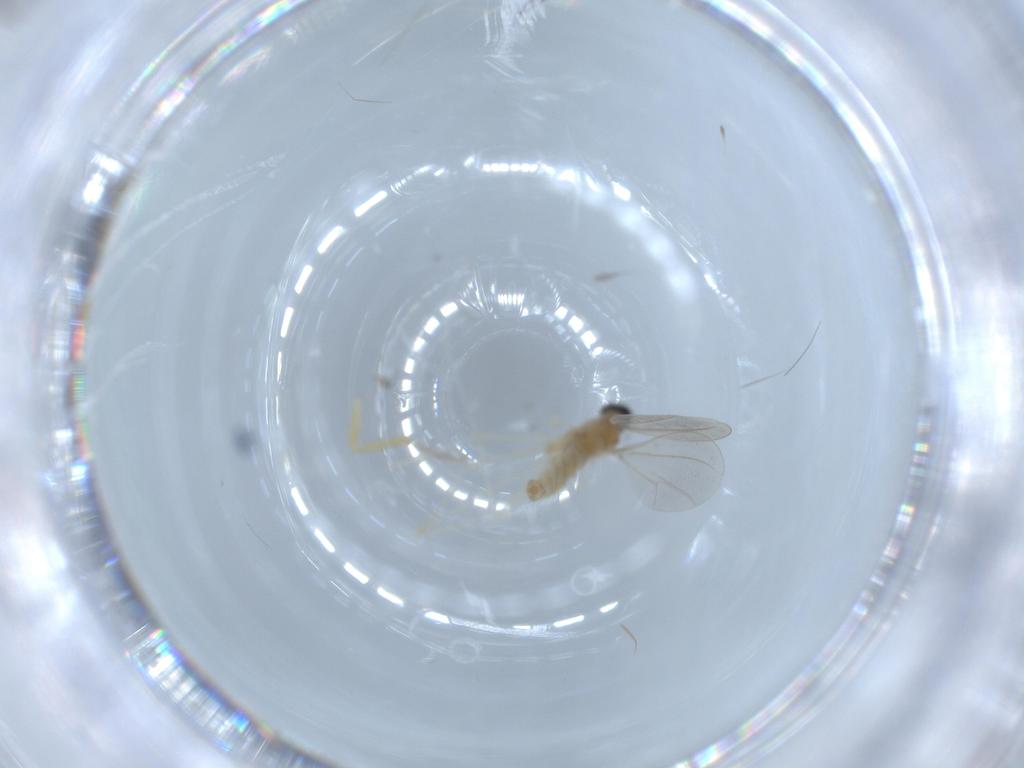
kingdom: Animalia
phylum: Arthropoda
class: Insecta
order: Diptera
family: Cecidomyiidae
